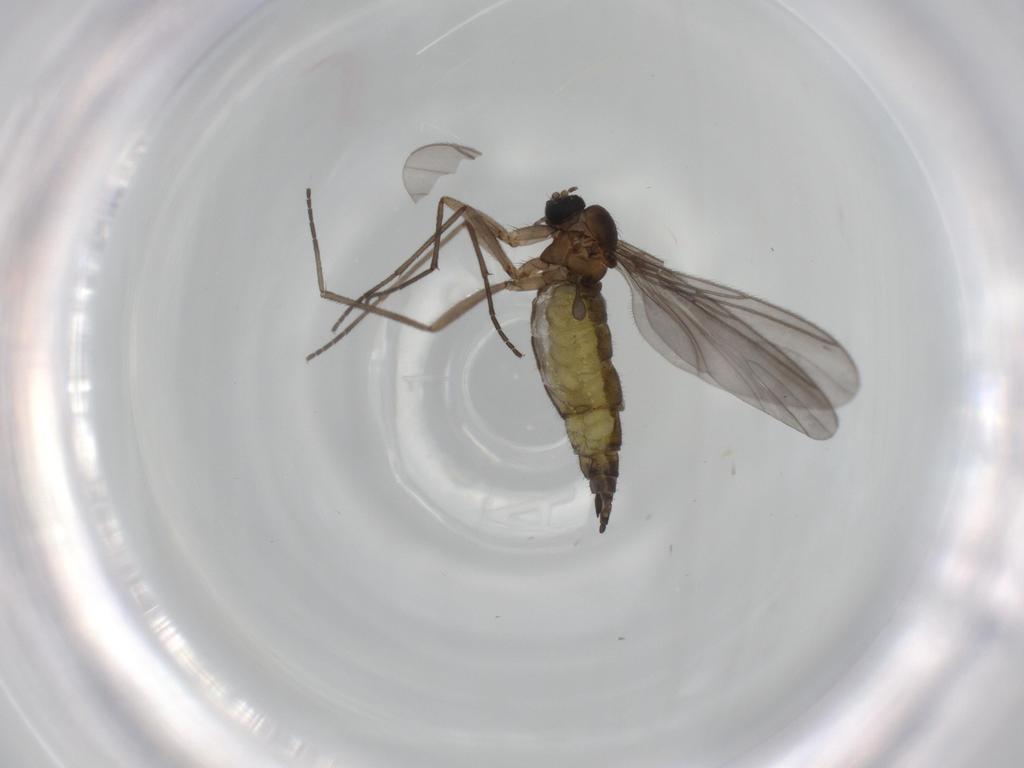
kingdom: Animalia
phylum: Arthropoda
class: Insecta
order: Diptera
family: Sciaridae
